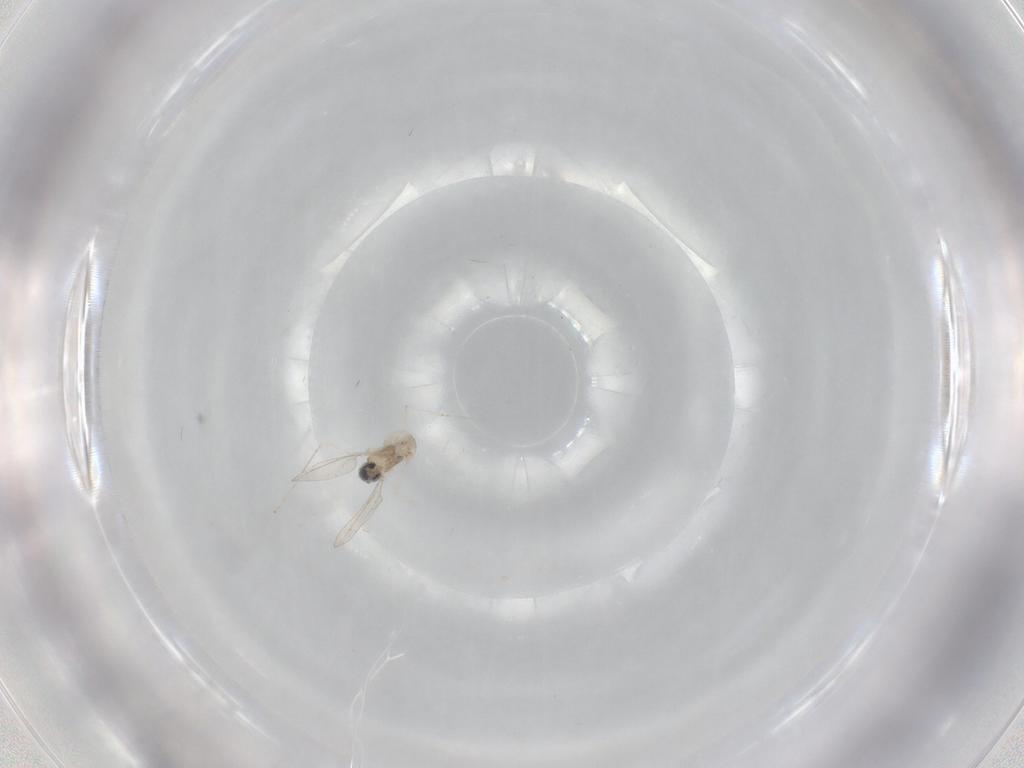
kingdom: Animalia
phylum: Arthropoda
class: Insecta
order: Diptera
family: Cecidomyiidae
